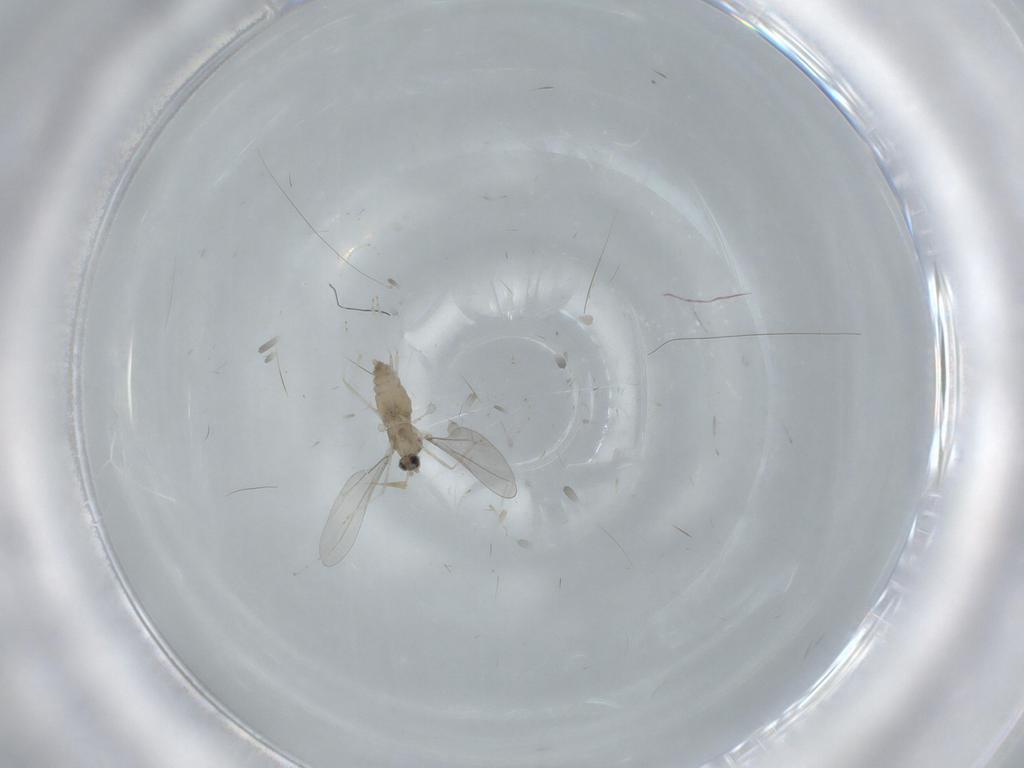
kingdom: Animalia
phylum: Arthropoda
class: Insecta
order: Diptera
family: Cecidomyiidae
